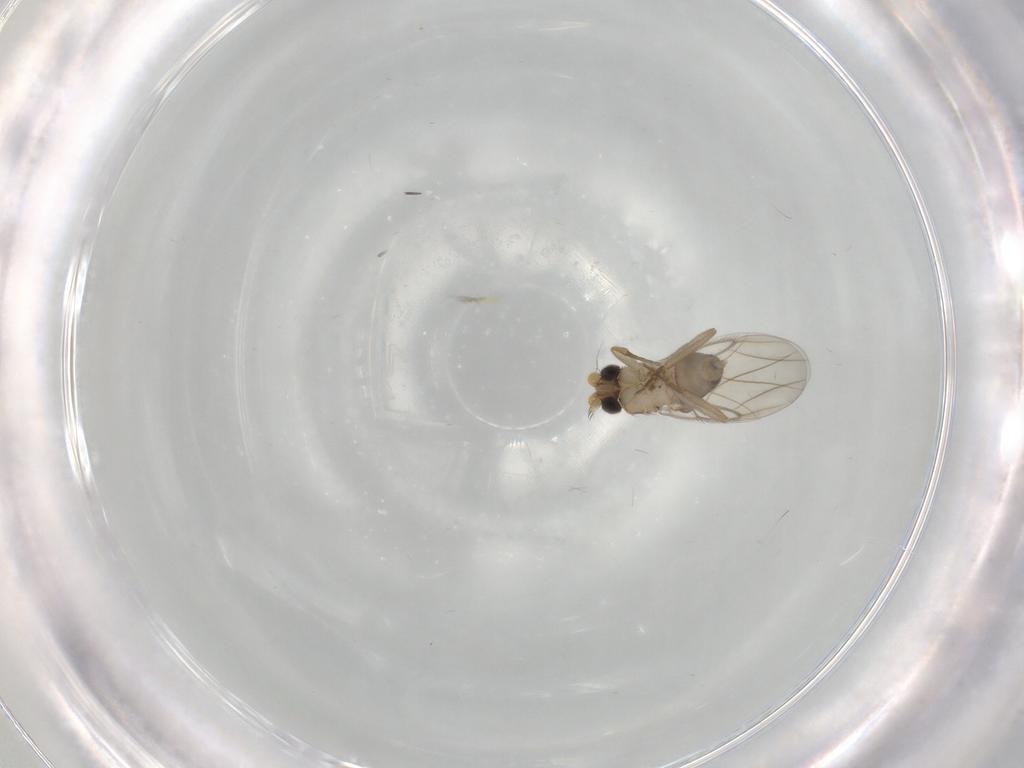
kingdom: Animalia
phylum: Arthropoda
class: Insecta
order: Diptera
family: Phoridae
